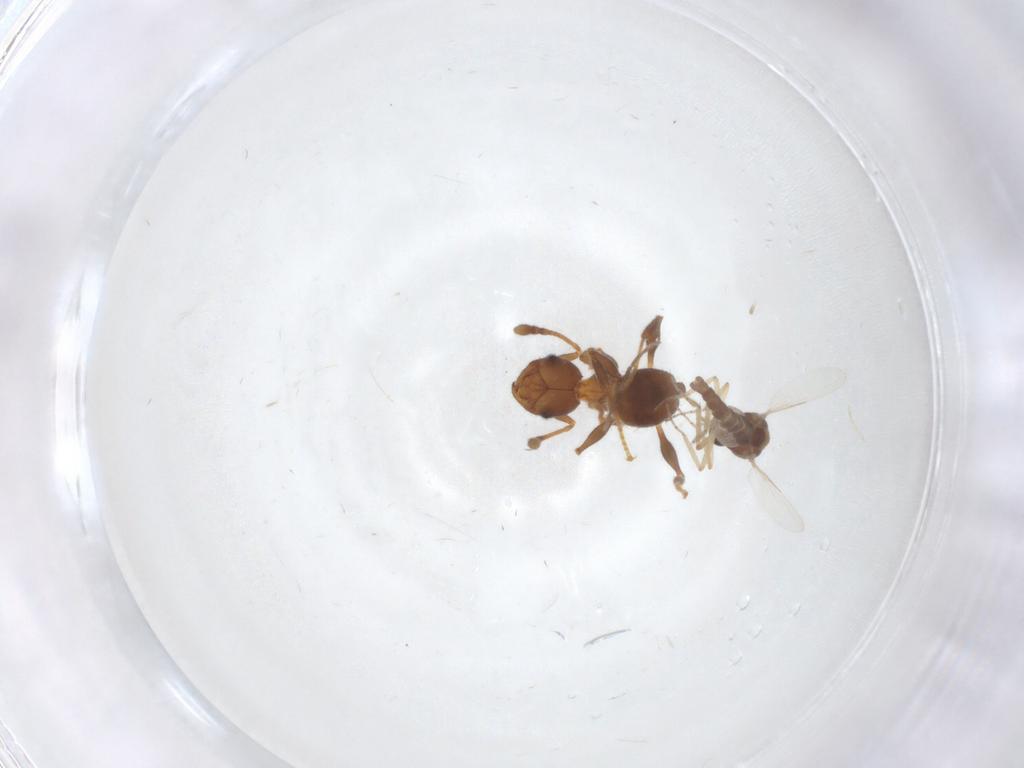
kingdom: Animalia
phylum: Arthropoda
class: Insecta
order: Hymenoptera
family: Formicidae
